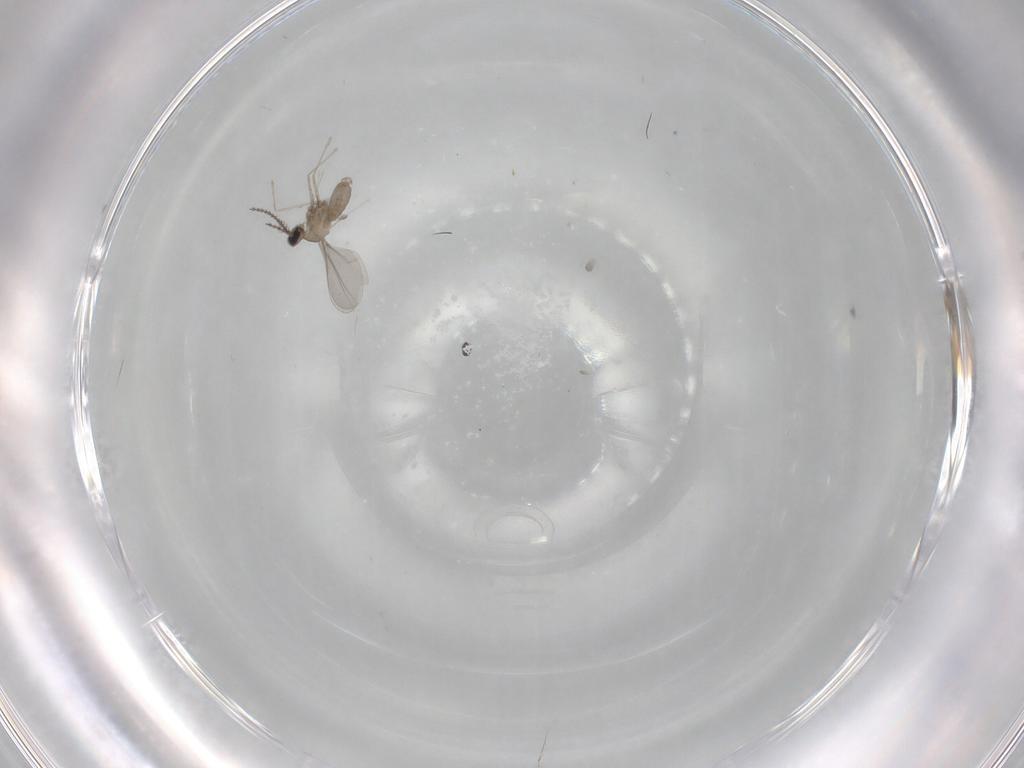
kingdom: Animalia
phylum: Arthropoda
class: Insecta
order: Diptera
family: Cecidomyiidae
